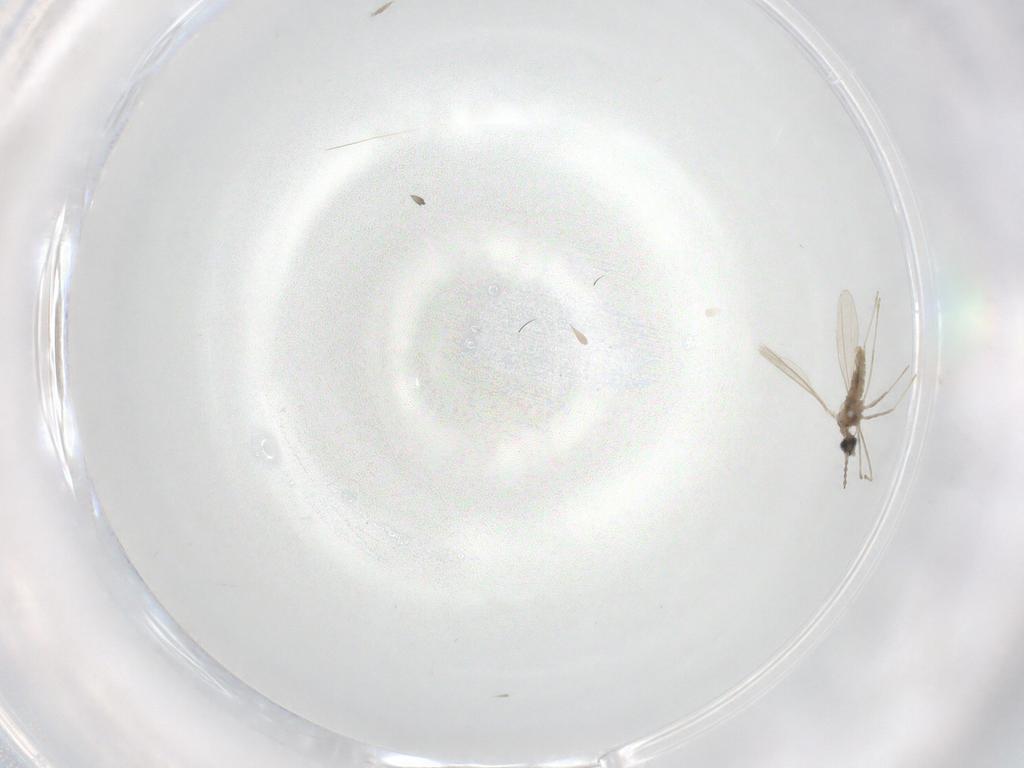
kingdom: Animalia
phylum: Arthropoda
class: Insecta
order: Diptera
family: Cecidomyiidae
